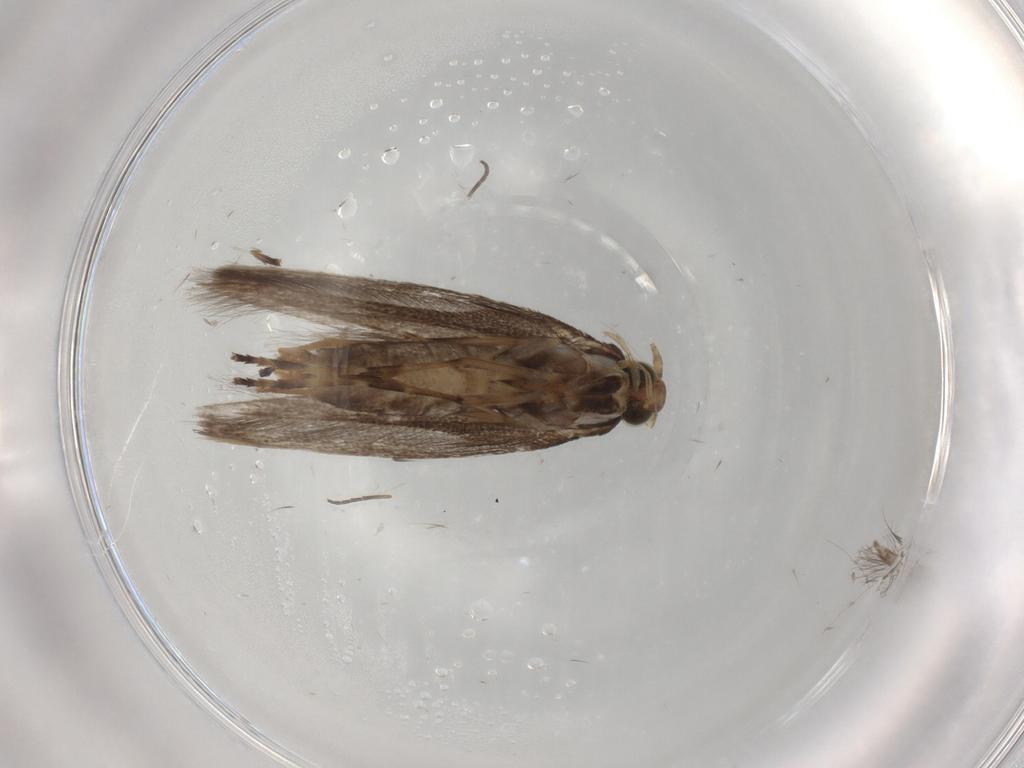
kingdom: Animalia
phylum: Arthropoda
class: Insecta
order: Lepidoptera
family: Gracillariidae
